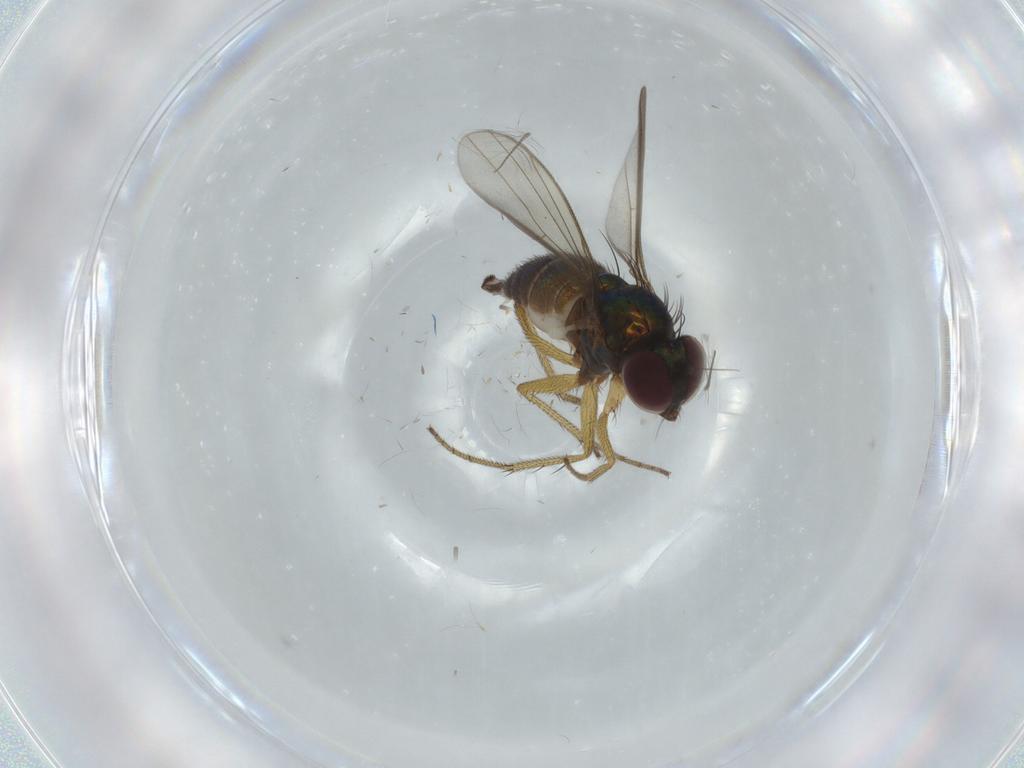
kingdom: Animalia
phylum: Arthropoda
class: Insecta
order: Diptera
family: Dolichopodidae
